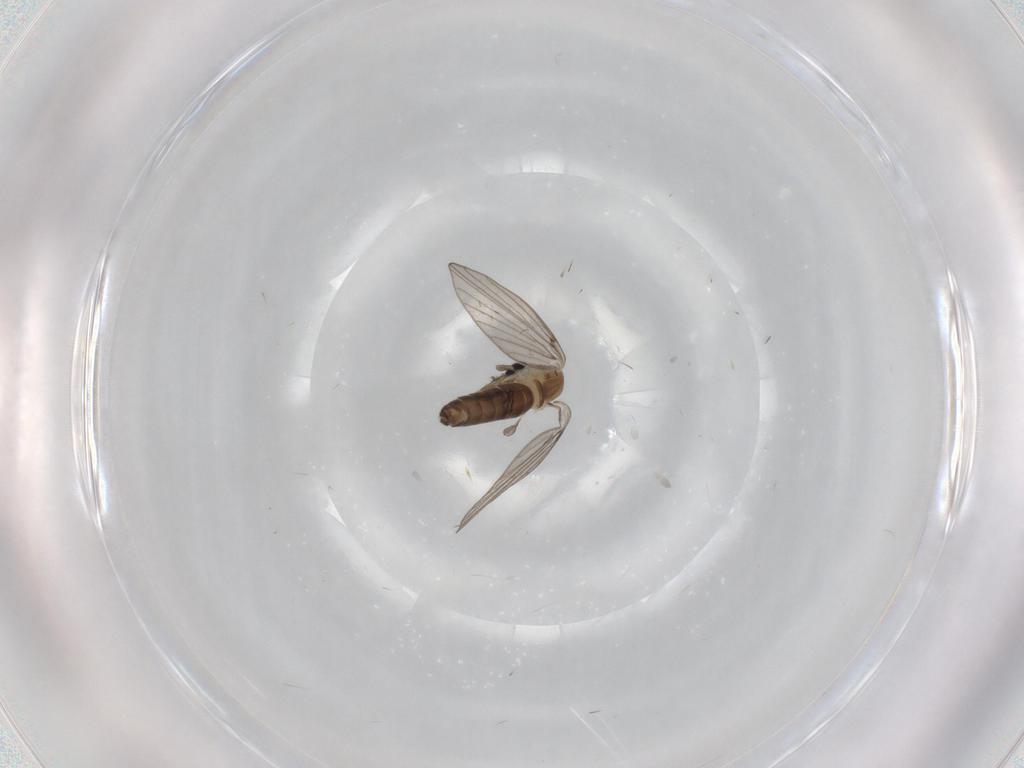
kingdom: Animalia
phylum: Arthropoda
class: Insecta
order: Diptera
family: Psychodidae
